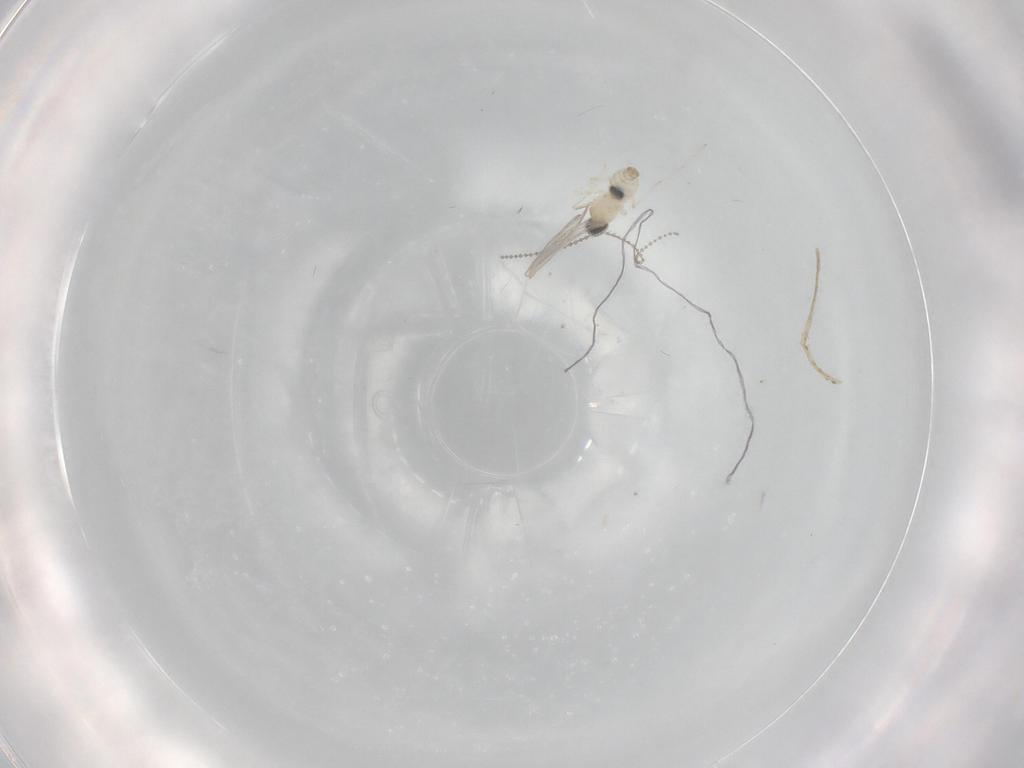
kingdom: Animalia
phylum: Arthropoda
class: Insecta
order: Diptera
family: Cecidomyiidae
